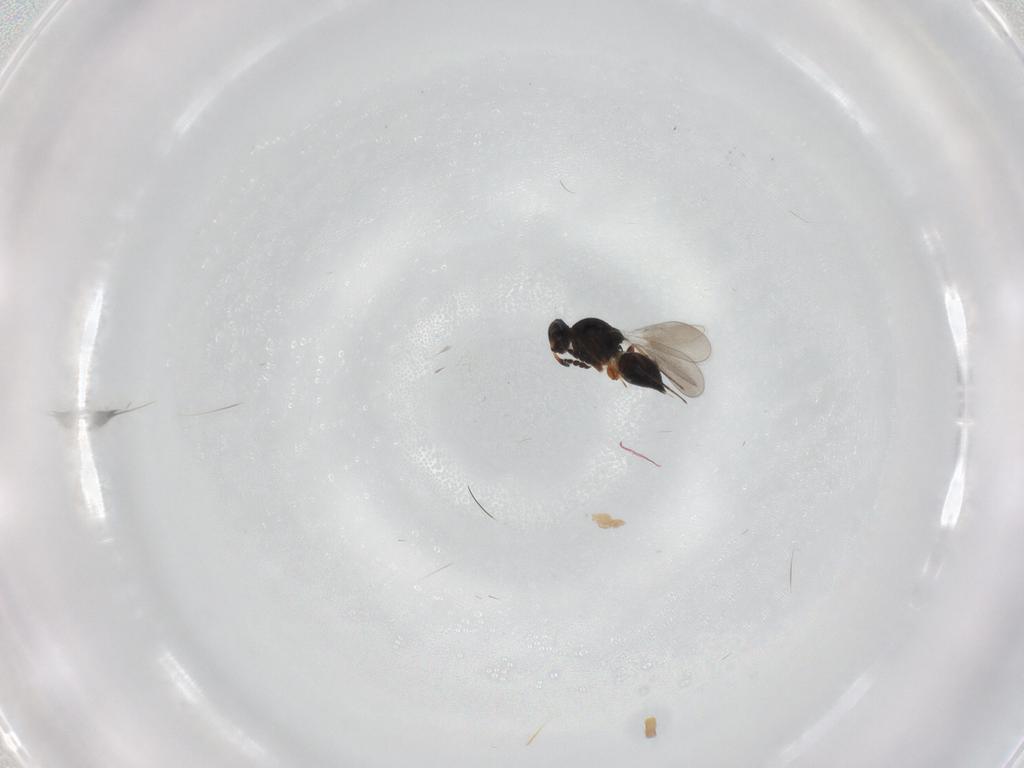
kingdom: Animalia
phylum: Arthropoda
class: Insecta
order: Hymenoptera
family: Platygastridae
